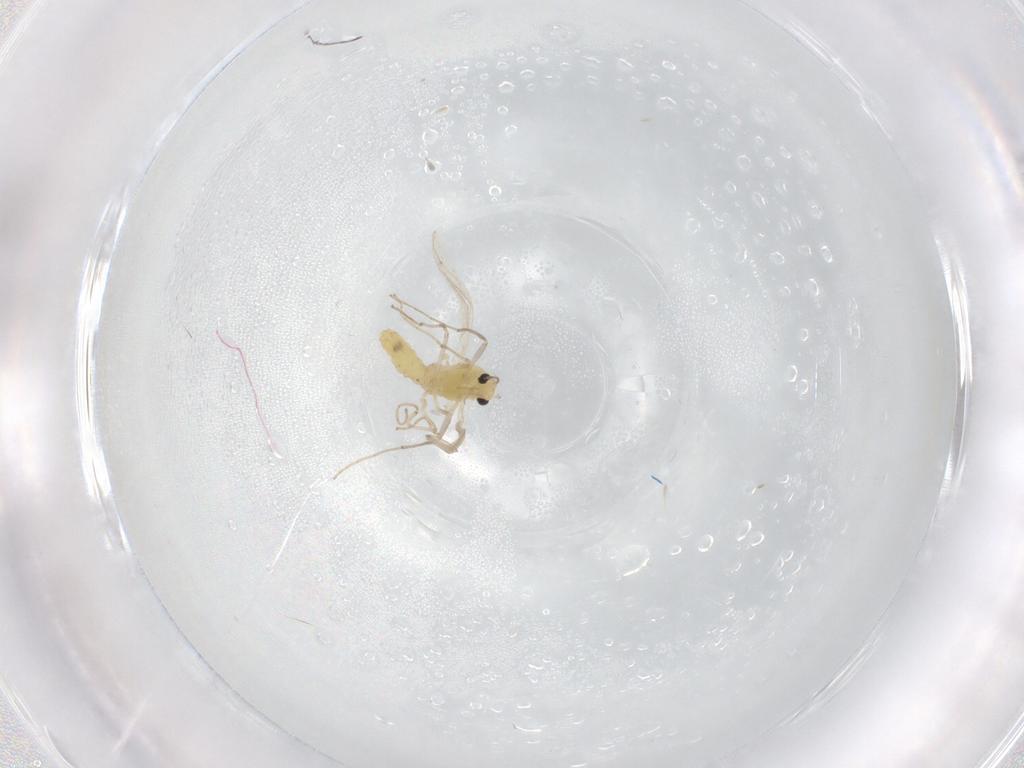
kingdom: Animalia
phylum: Arthropoda
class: Insecta
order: Diptera
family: Chironomidae
